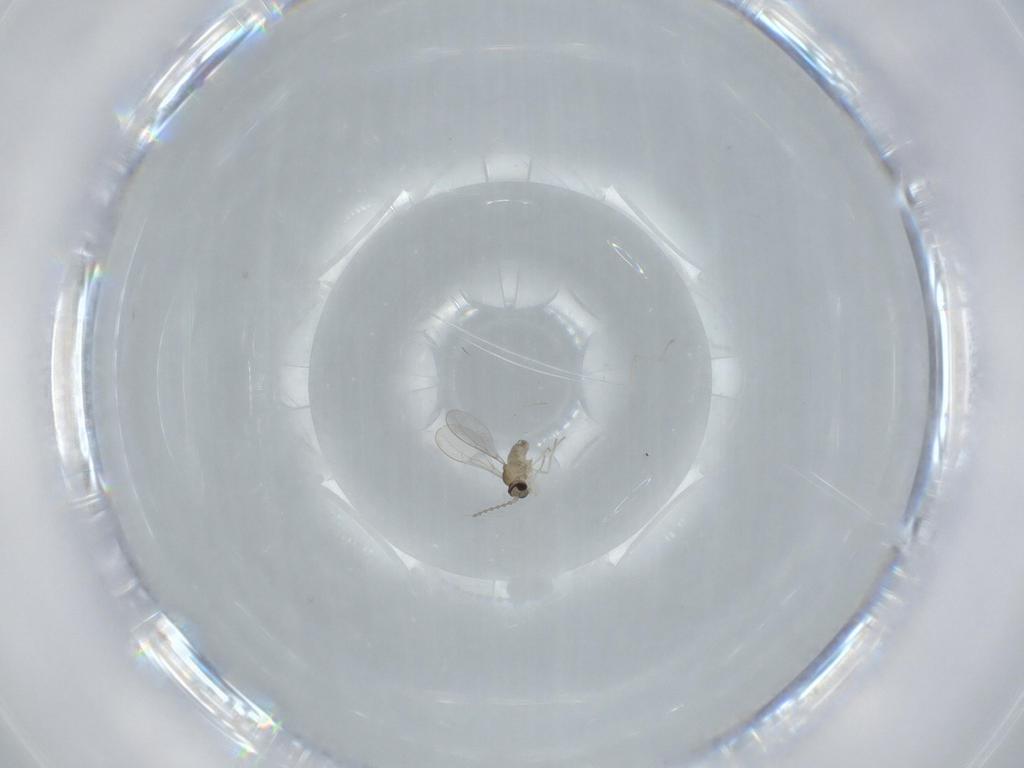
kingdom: Animalia
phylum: Arthropoda
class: Insecta
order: Diptera
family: Cecidomyiidae
